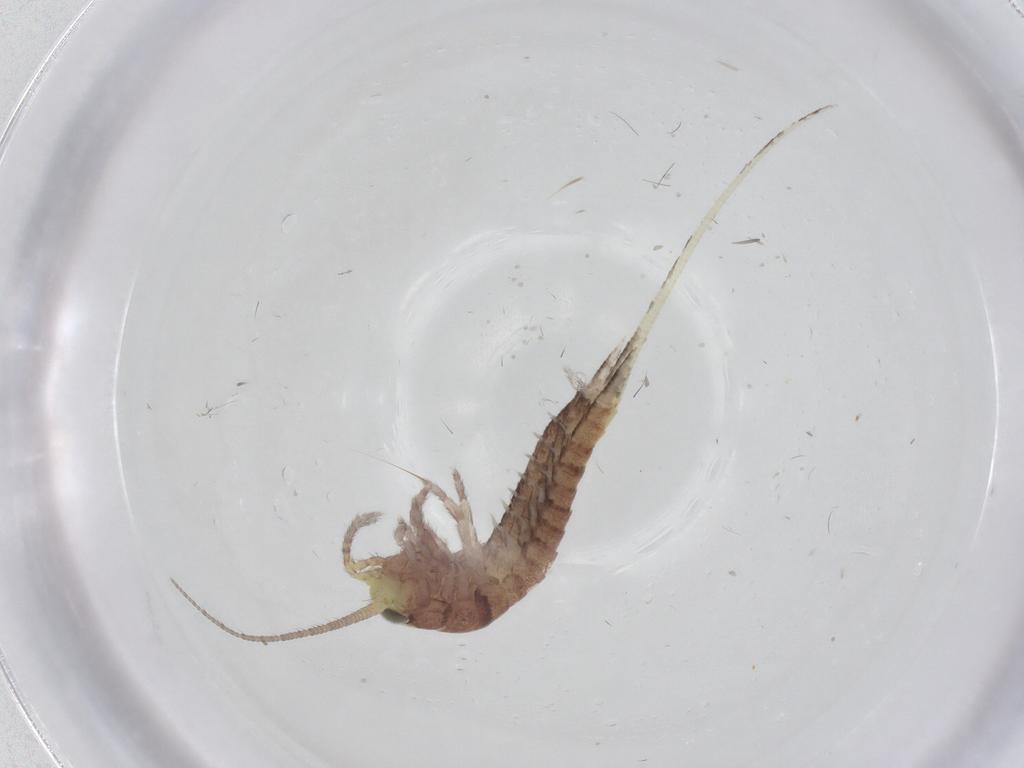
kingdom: Animalia
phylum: Arthropoda
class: Insecta
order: Archaeognatha
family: Machilidae
